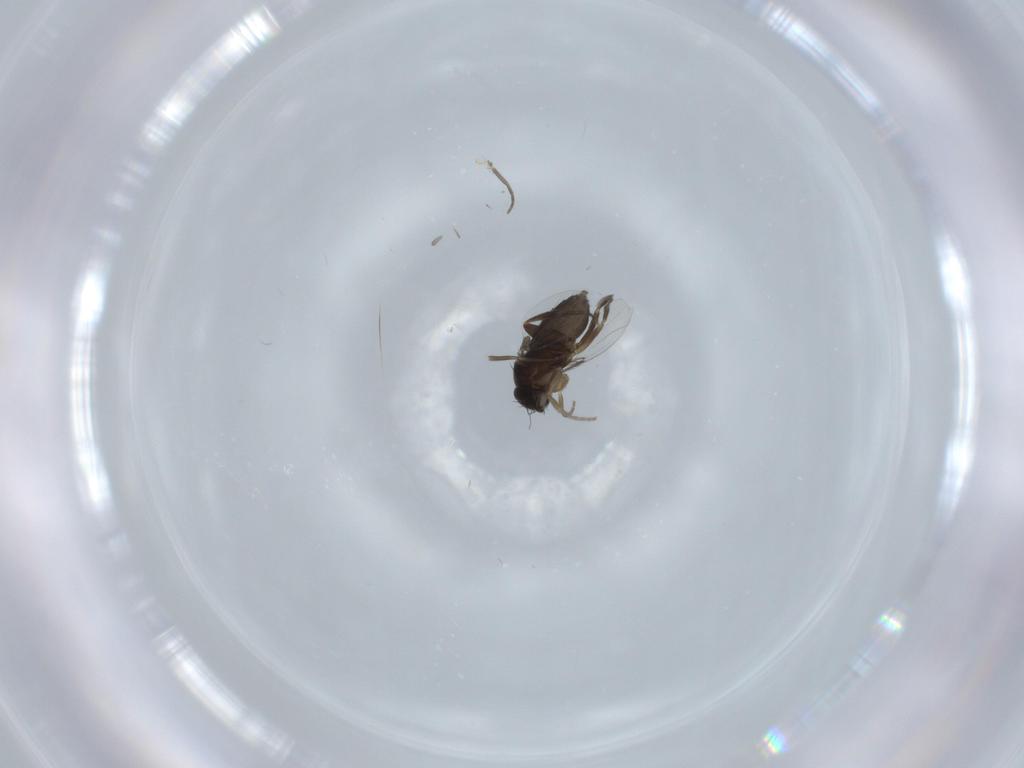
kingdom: Animalia
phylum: Arthropoda
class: Insecta
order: Diptera
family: Phoridae
